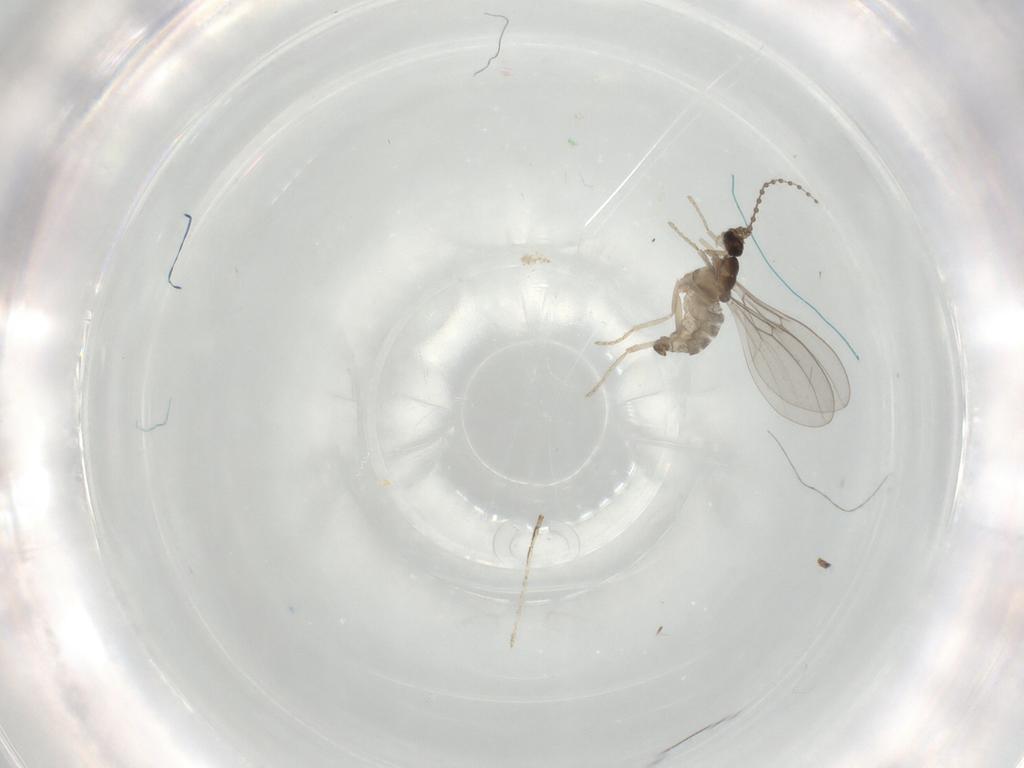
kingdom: Animalia
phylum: Arthropoda
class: Insecta
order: Diptera
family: Cecidomyiidae
